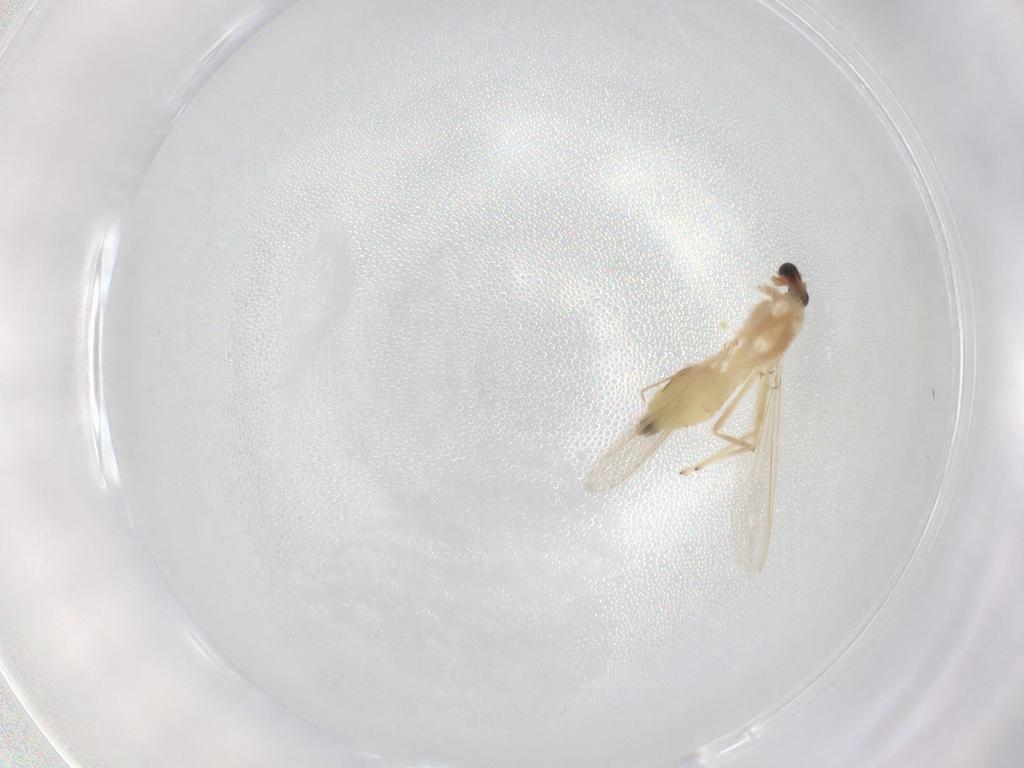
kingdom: Animalia
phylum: Arthropoda
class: Insecta
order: Diptera
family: Chironomidae
